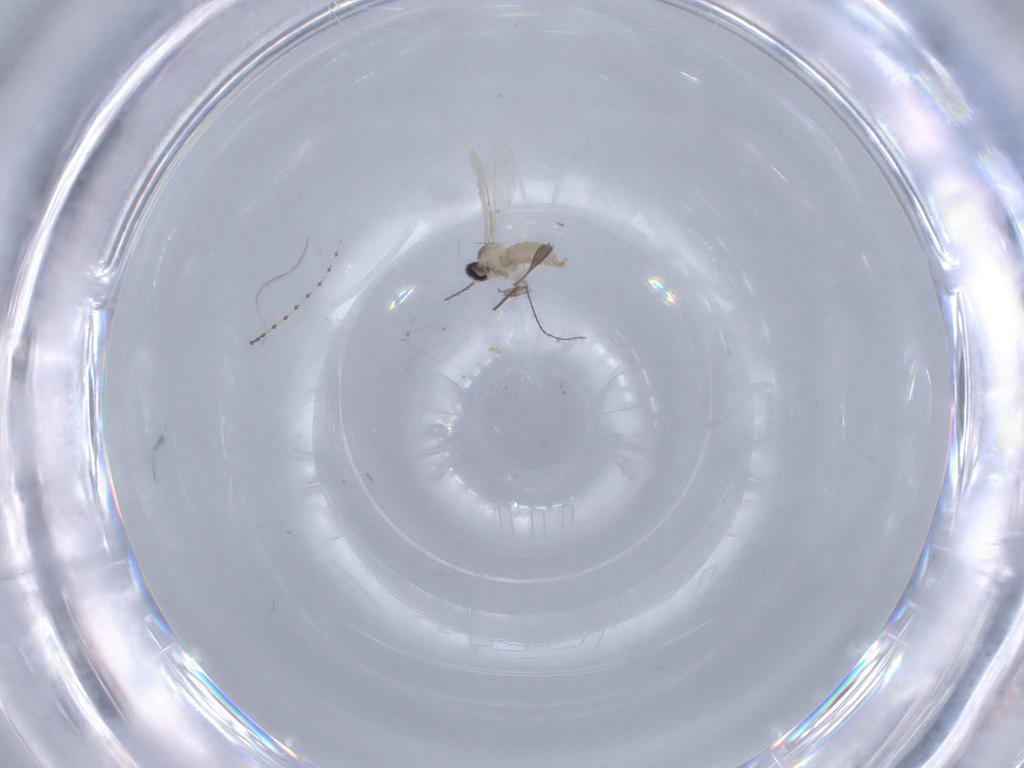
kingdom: Animalia
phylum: Arthropoda
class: Insecta
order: Diptera
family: Cecidomyiidae
